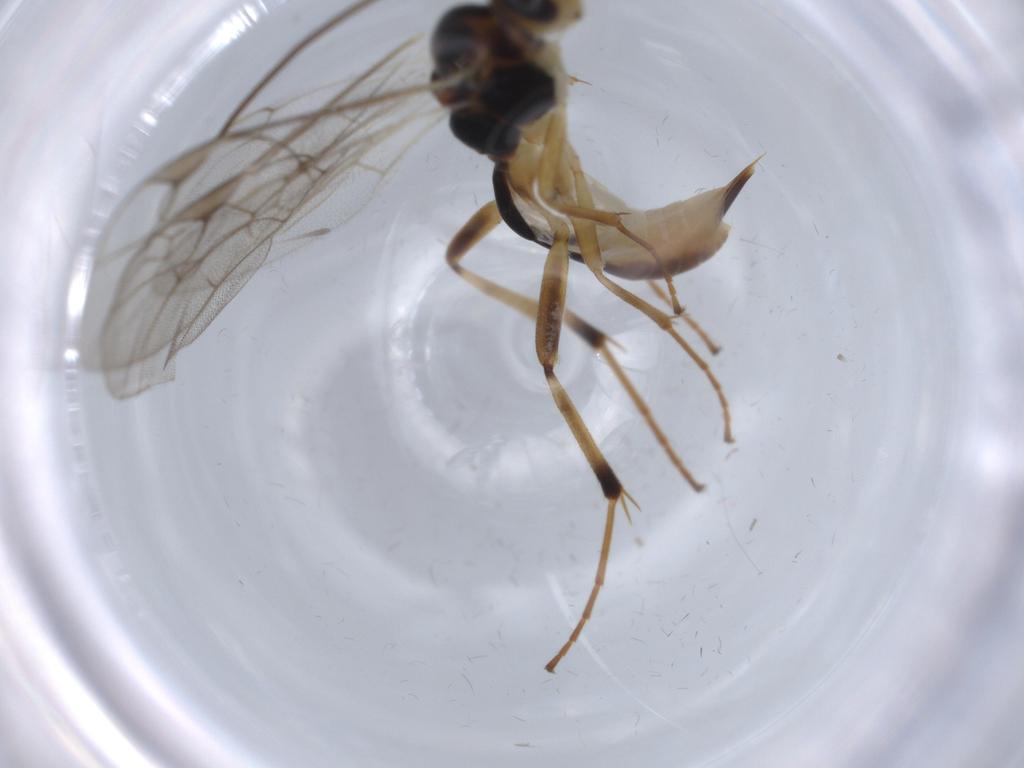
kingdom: Animalia
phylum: Arthropoda
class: Insecta
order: Hymenoptera
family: Ichneumonidae
